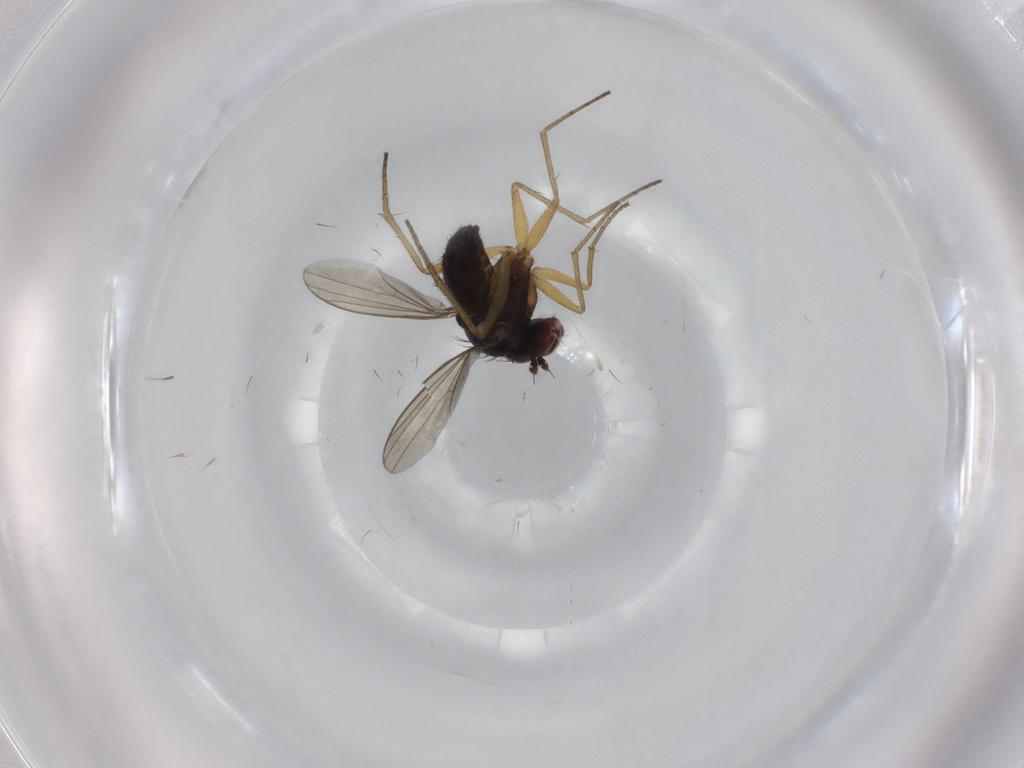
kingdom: Animalia
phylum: Arthropoda
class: Insecta
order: Diptera
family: Dolichopodidae
